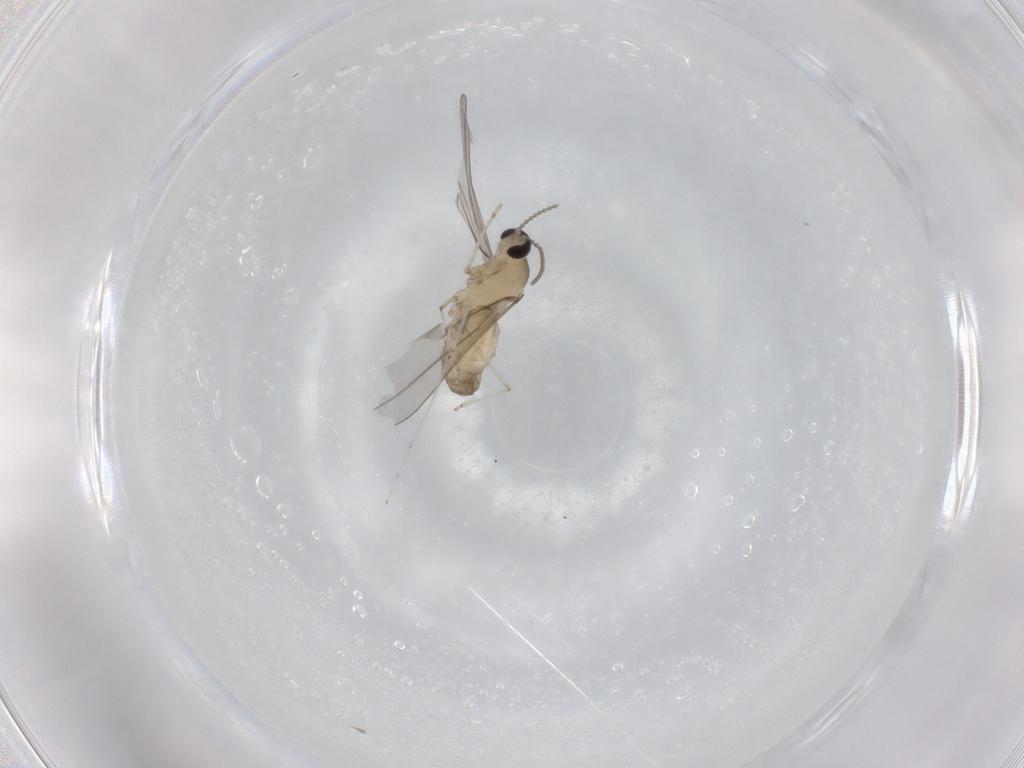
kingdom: Animalia
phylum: Arthropoda
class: Insecta
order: Diptera
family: Cecidomyiidae
